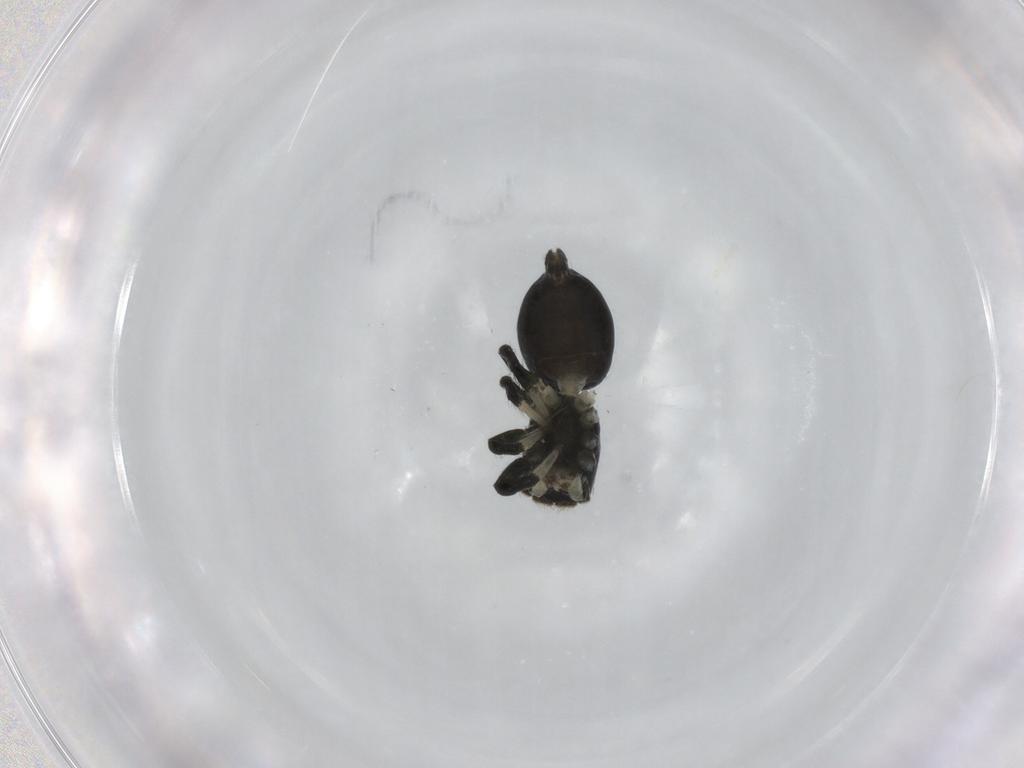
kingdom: Animalia
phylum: Arthropoda
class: Arachnida
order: Araneae
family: Salticidae
